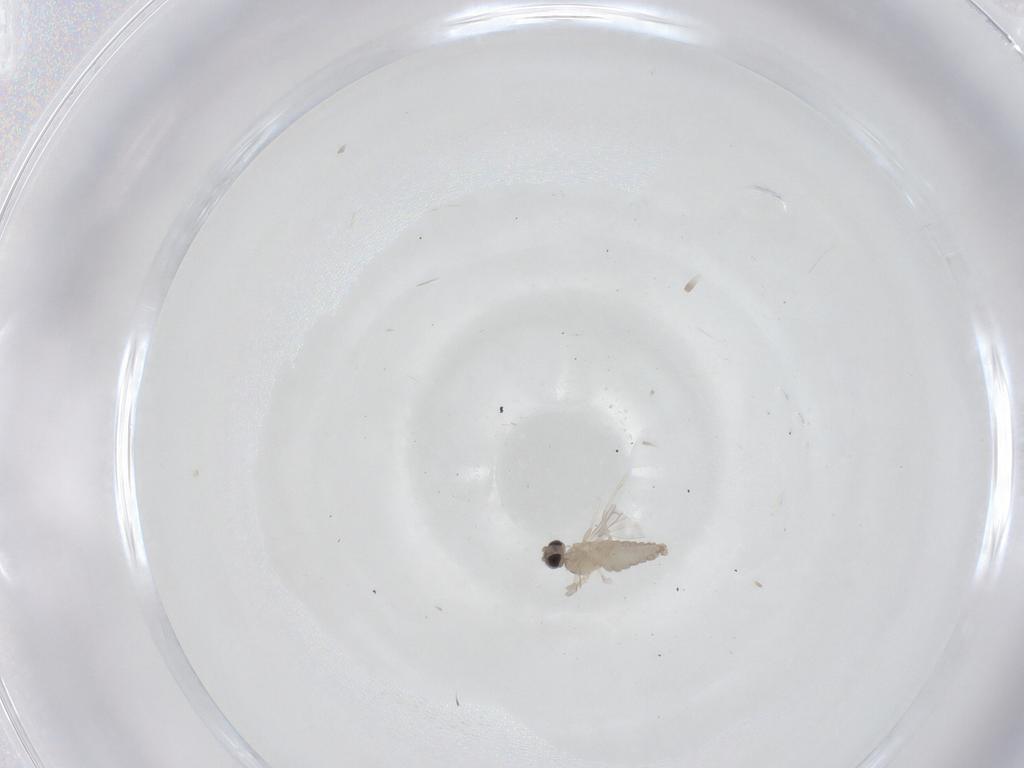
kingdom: Animalia
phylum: Arthropoda
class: Insecta
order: Diptera
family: Cecidomyiidae
